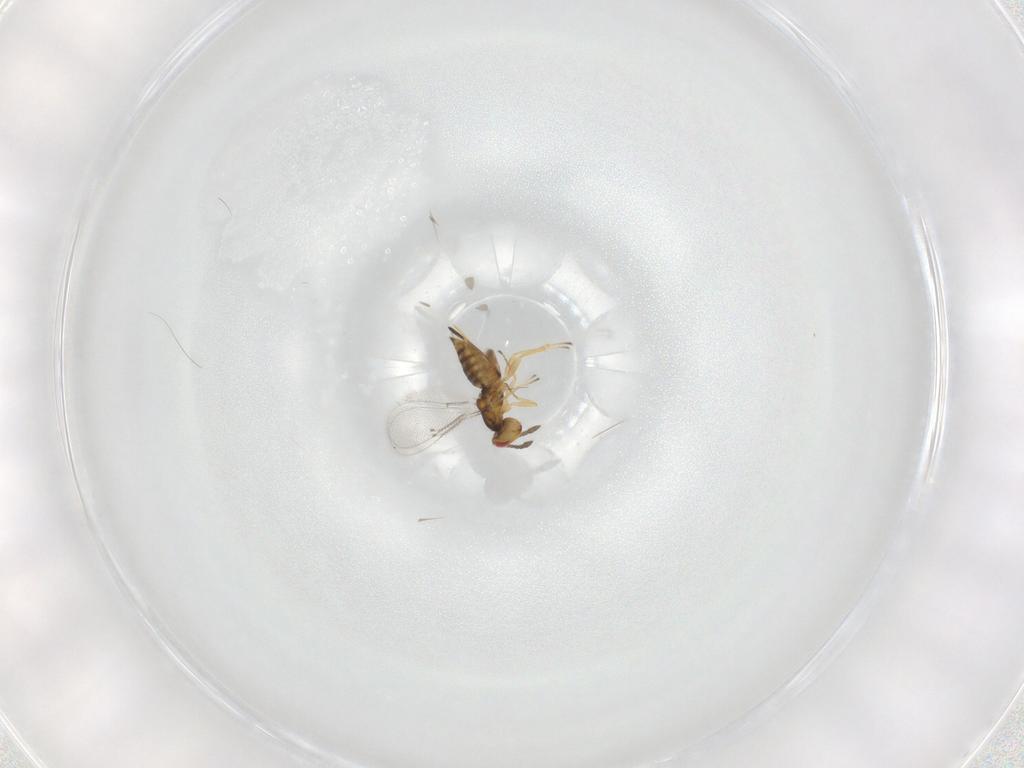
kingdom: Animalia
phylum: Arthropoda
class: Insecta
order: Hymenoptera
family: Eulophidae
